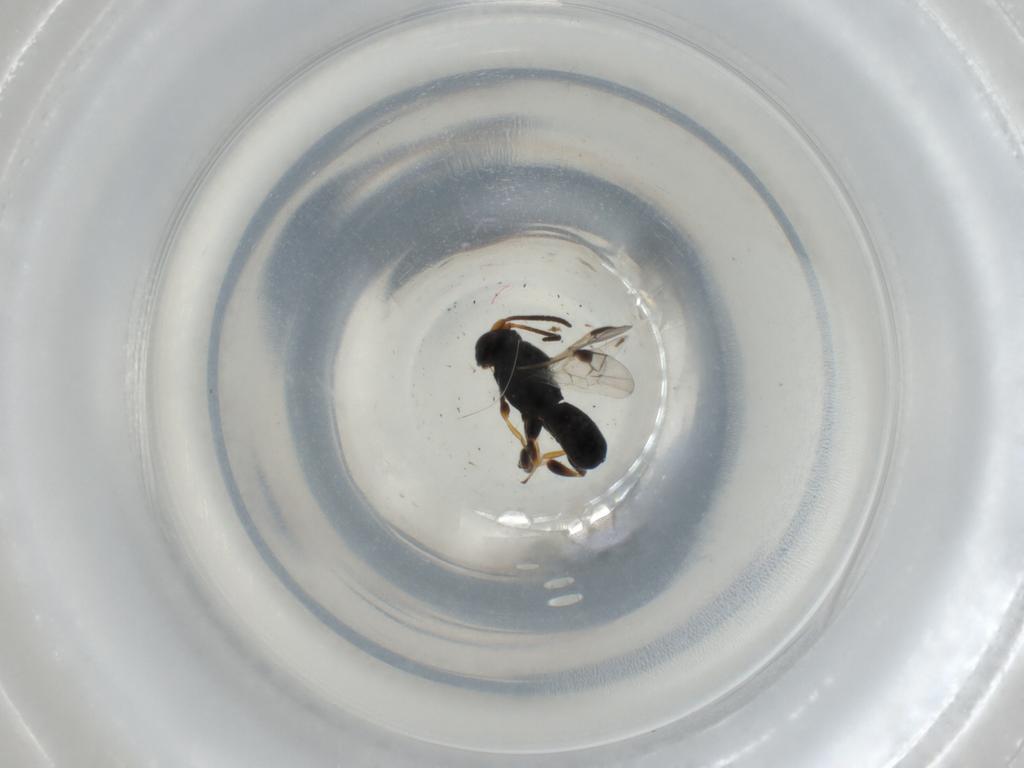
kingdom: Animalia
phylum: Arthropoda
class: Insecta
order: Hymenoptera
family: Braconidae
